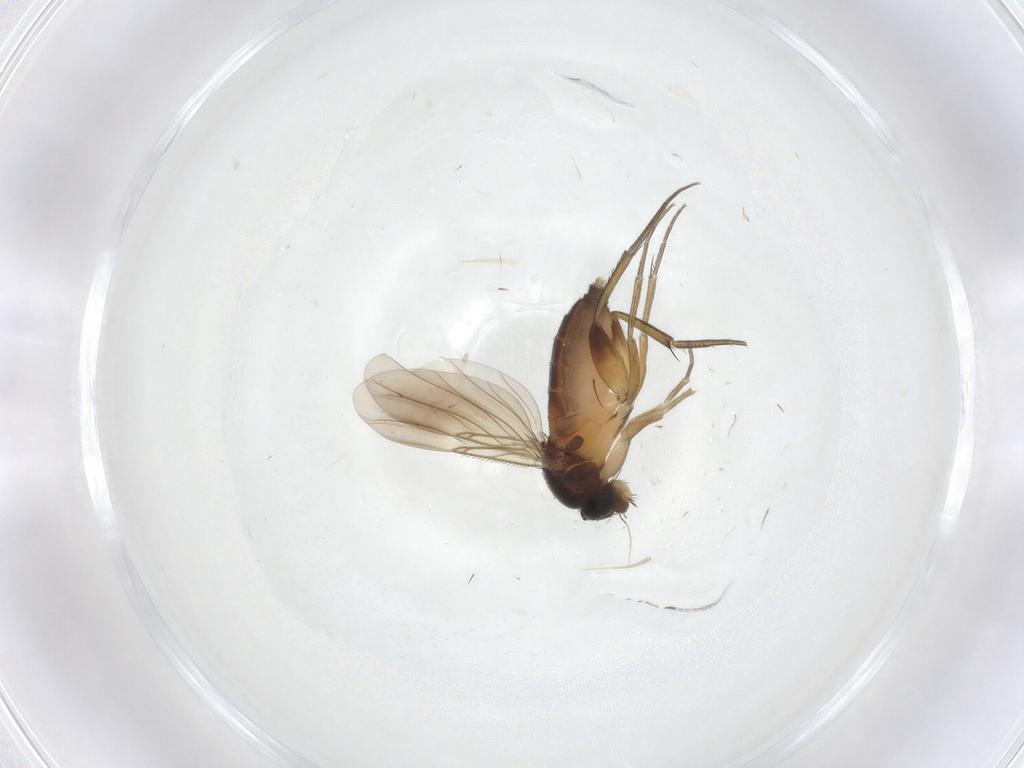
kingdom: Animalia
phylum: Arthropoda
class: Insecta
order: Diptera
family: Phoridae
